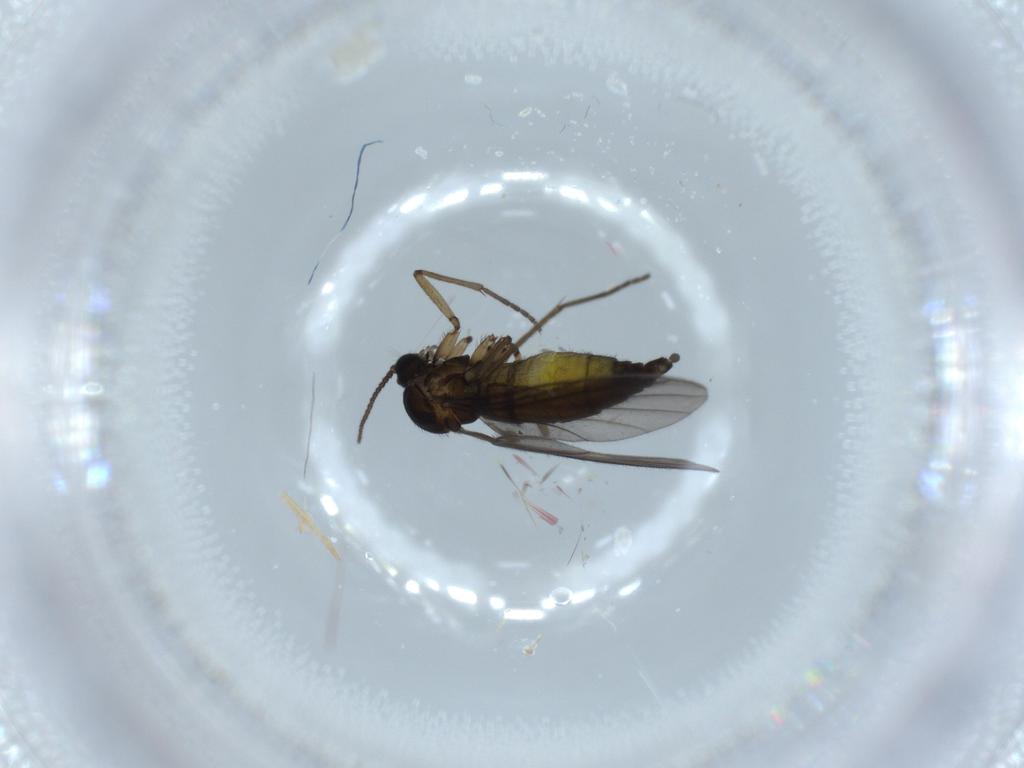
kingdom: Animalia
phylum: Arthropoda
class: Insecta
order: Diptera
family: Sciaridae
